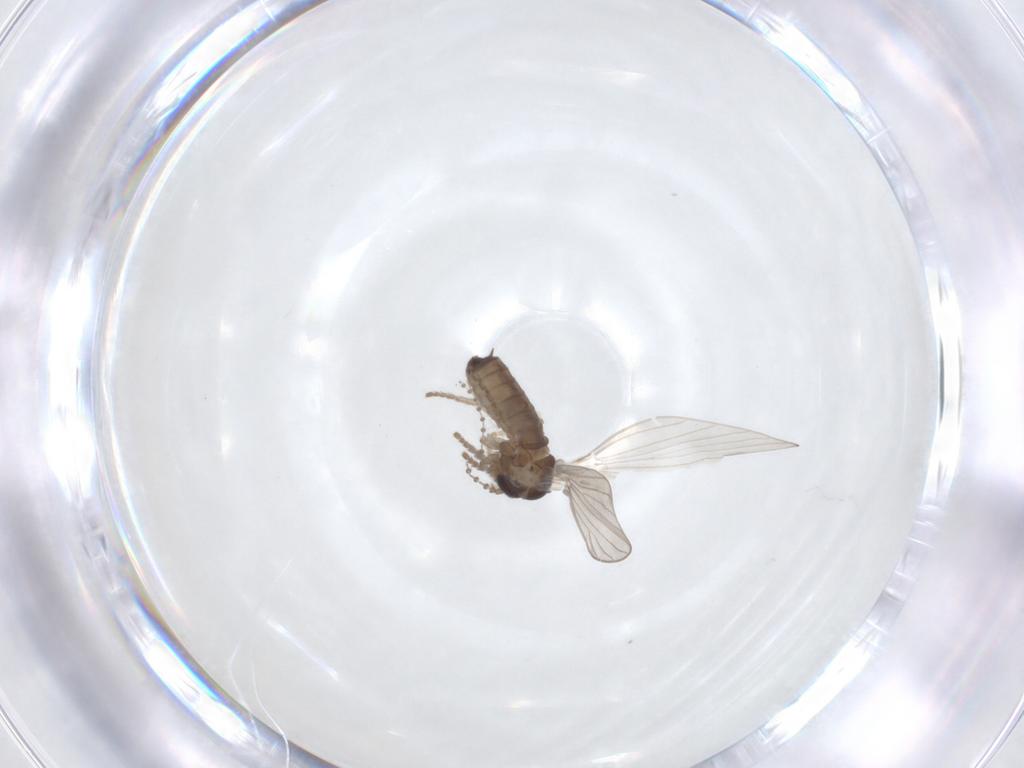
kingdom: Animalia
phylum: Arthropoda
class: Insecta
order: Diptera
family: Psychodidae
